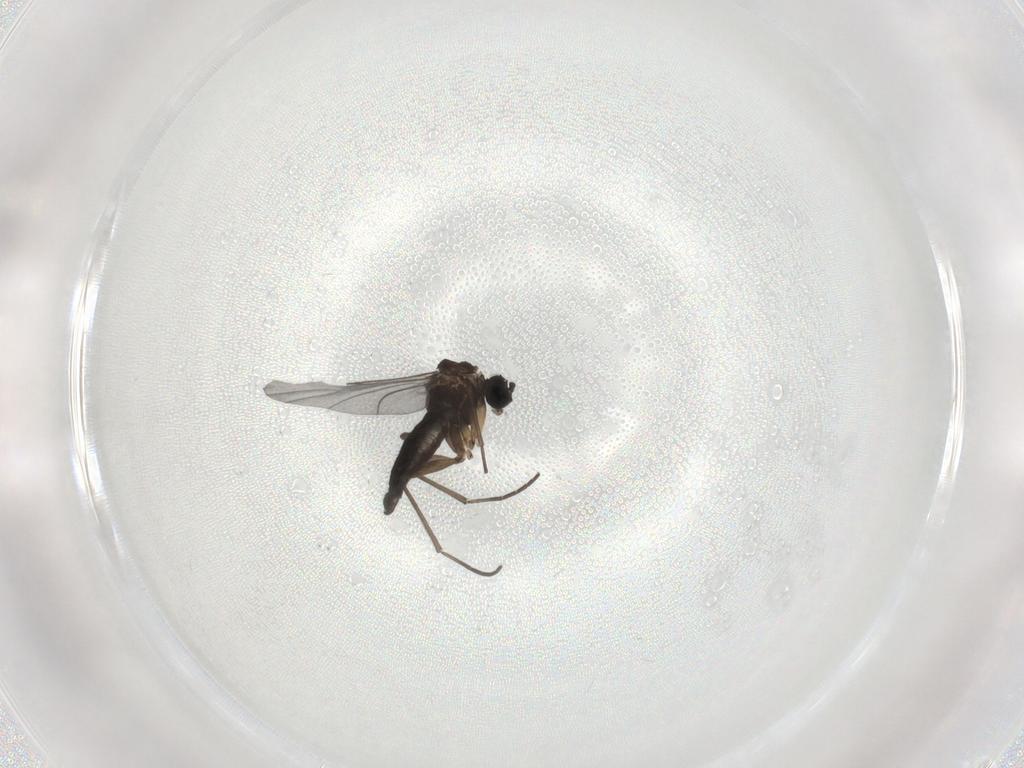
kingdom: Animalia
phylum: Arthropoda
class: Insecta
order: Diptera
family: Sciaridae
